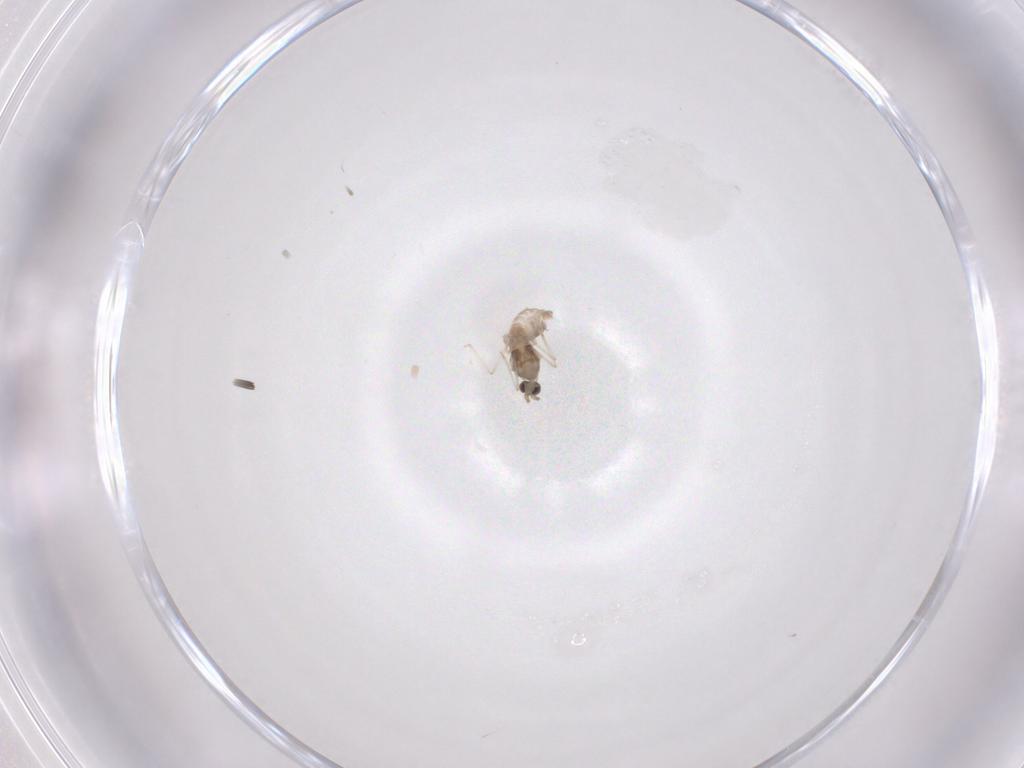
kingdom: Animalia
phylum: Arthropoda
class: Insecta
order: Diptera
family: Cecidomyiidae
